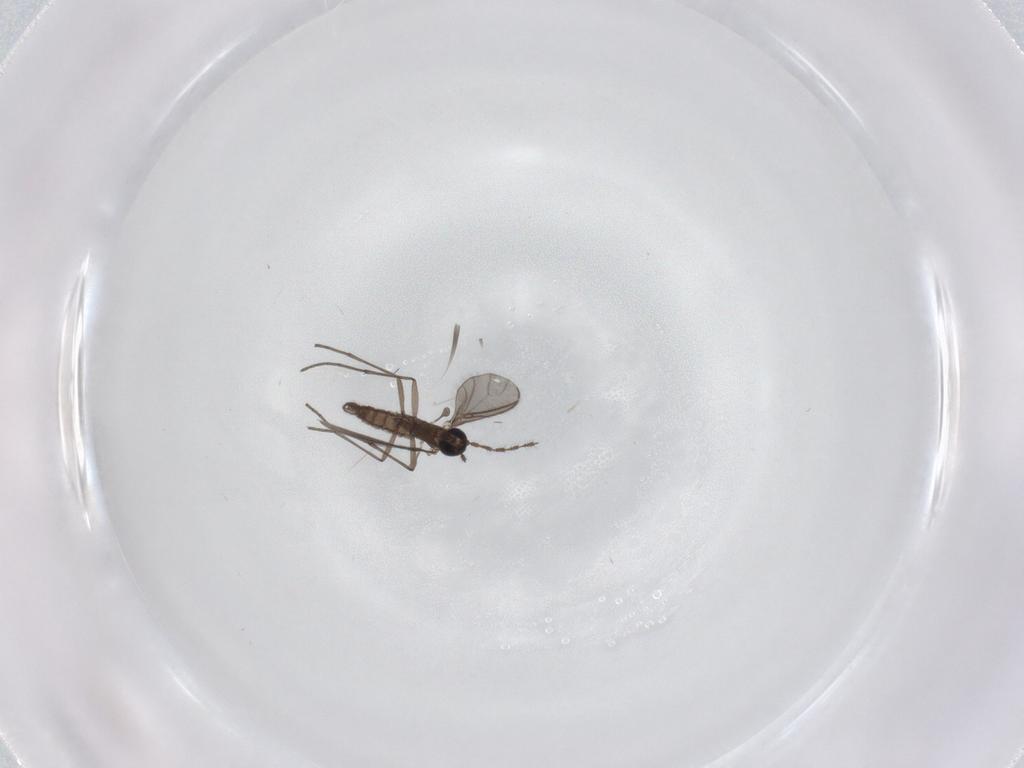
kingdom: Animalia
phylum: Arthropoda
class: Insecta
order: Diptera
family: Sciaridae
